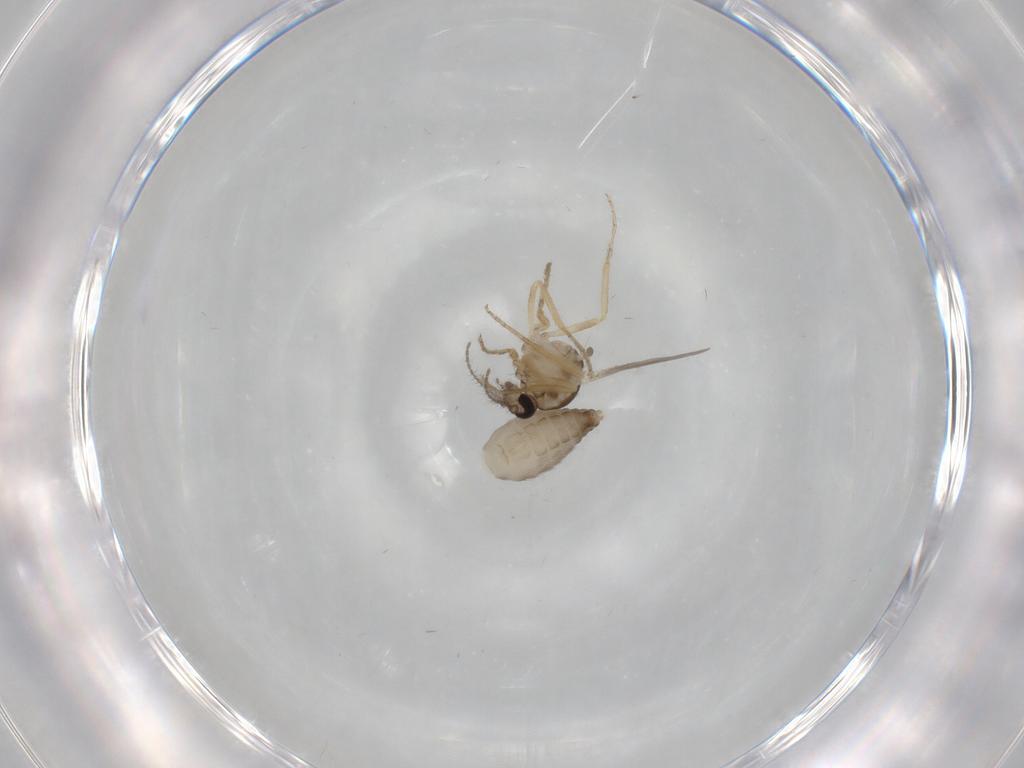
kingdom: Animalia
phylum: Arthropoda
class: Insecta
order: Diptera
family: Ceratopogonidae
